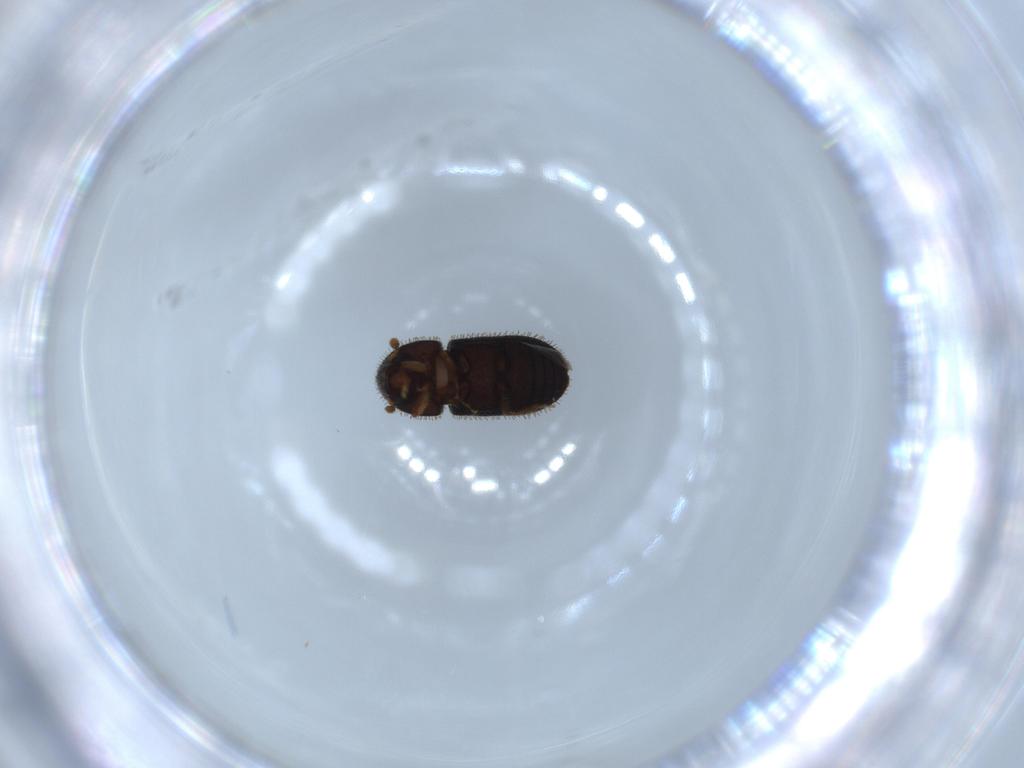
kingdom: Animalia
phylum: Arthropoda
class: Insecta
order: Coleoptera
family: Curculionidae
